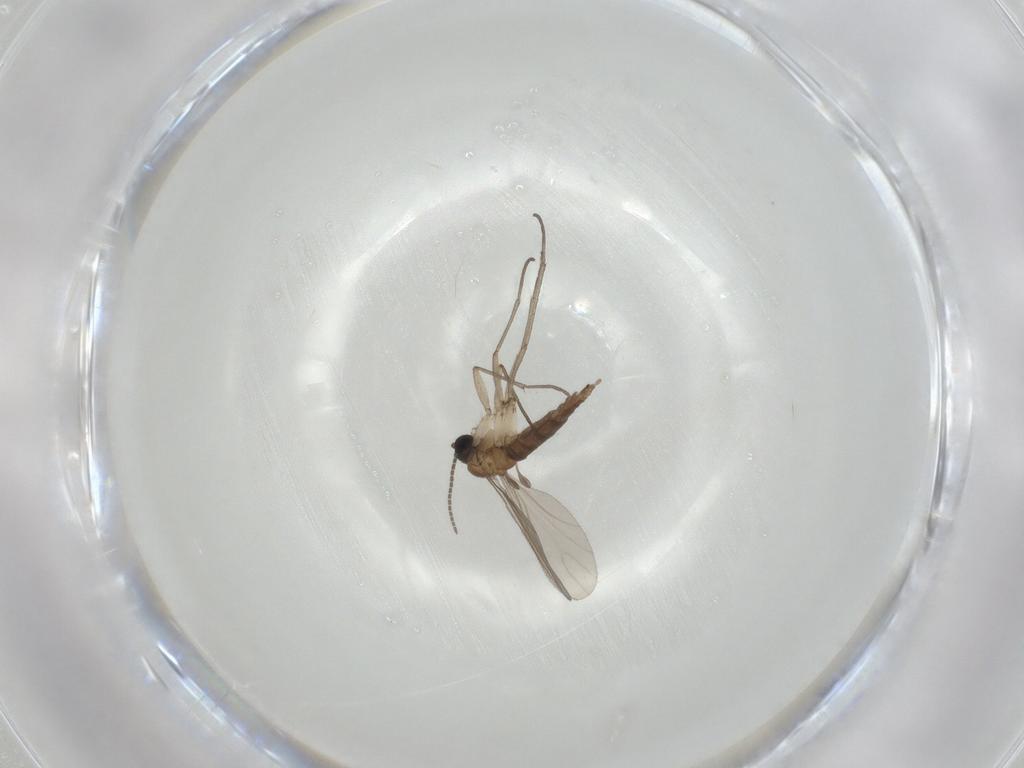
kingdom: Animalia
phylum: Arthropoda
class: Insecta
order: Diptera
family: Sciaridae
